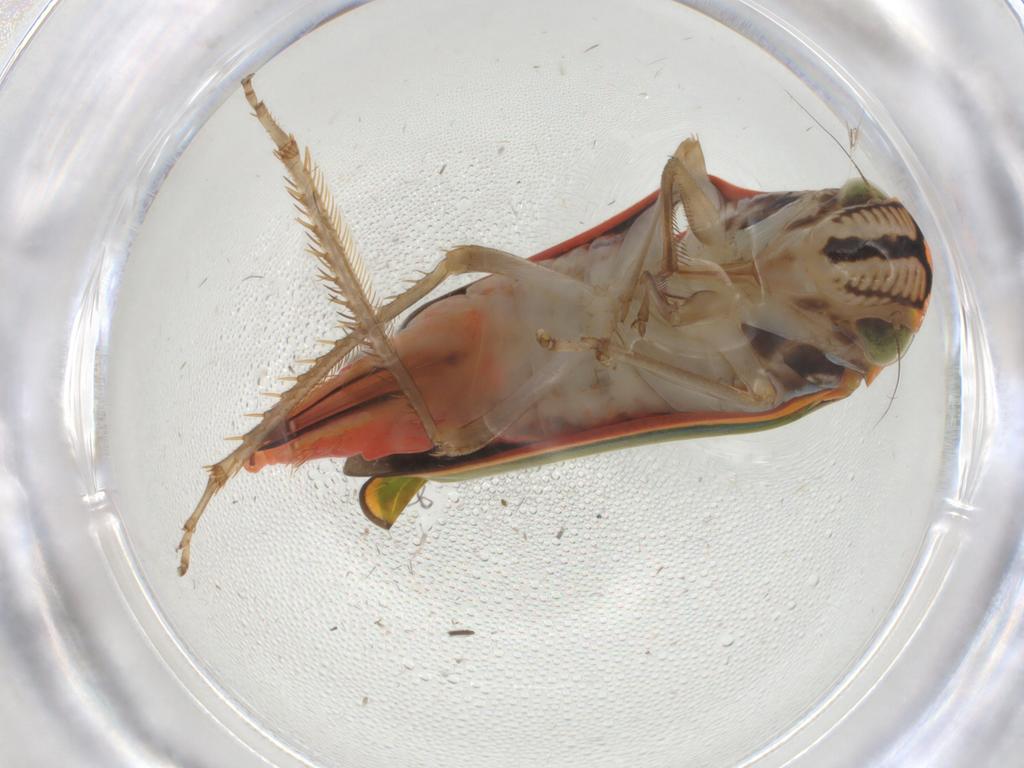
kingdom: Animalia
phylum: Arthropoda
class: Insecta
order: Hemiptera
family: Cicadellidae
